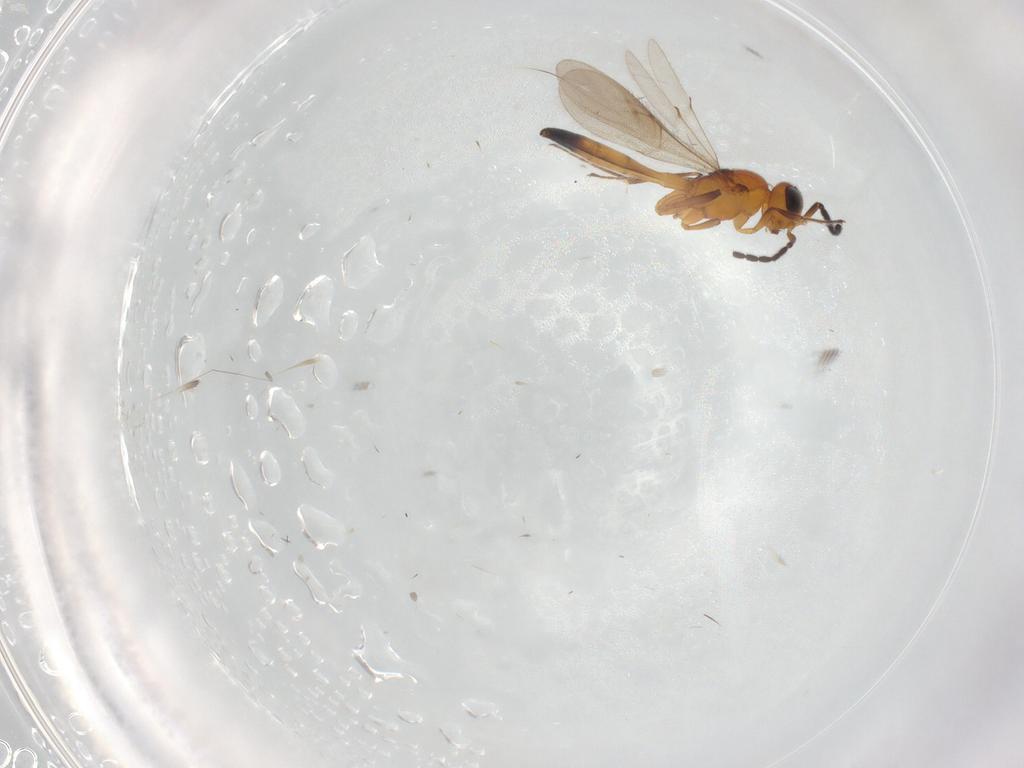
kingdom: Animalia
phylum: Arthropoda
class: Insecta
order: Hymenoptera
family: Scelionidae
